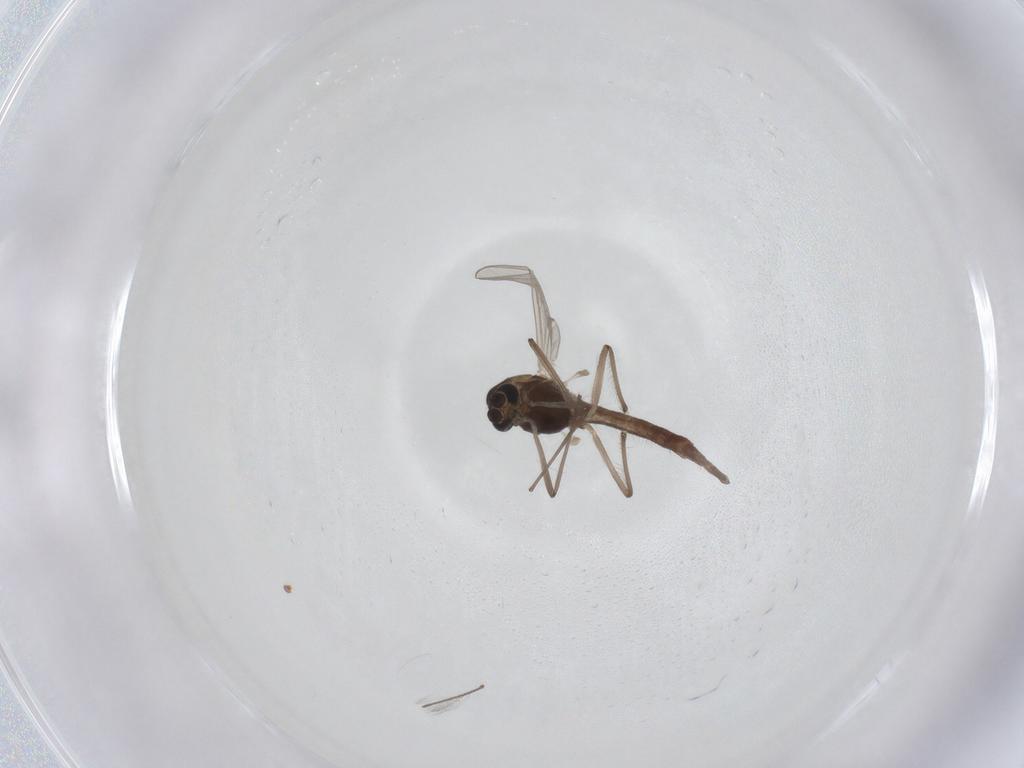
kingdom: Animalia
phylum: Arthropoda
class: Insecta
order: Diptera
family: Chironomidae
